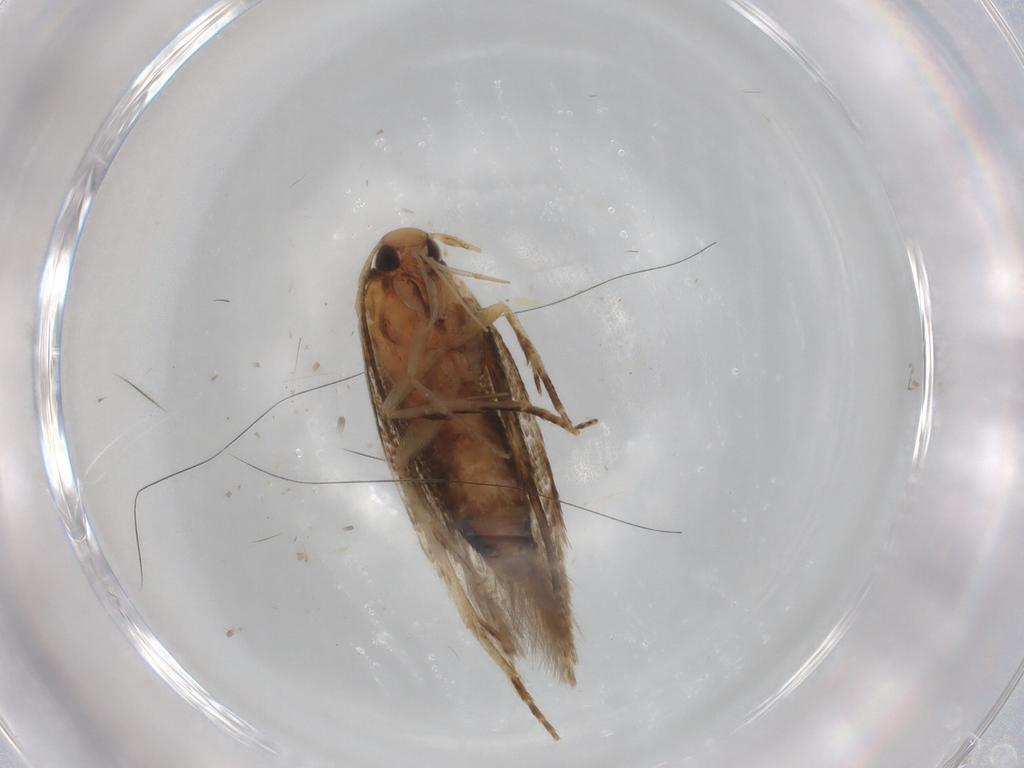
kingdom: Animalia
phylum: Arthropoda
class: Insecta
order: Lepidoptera
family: Cosmopterigidae
